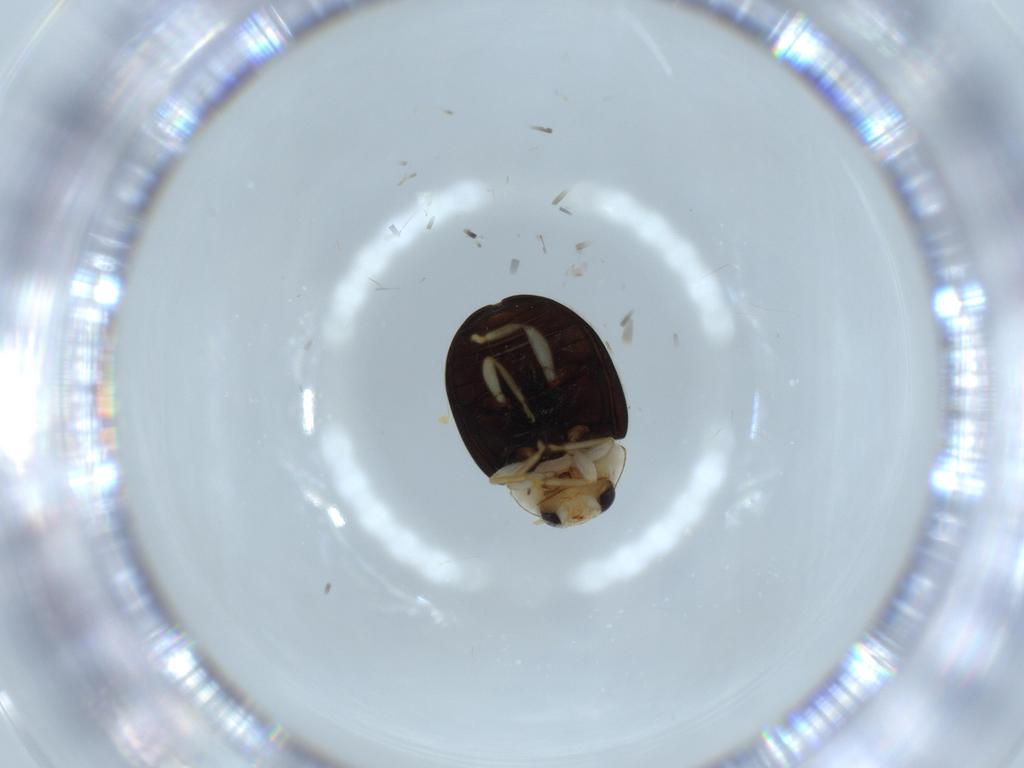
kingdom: Animalia
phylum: Arthropoda
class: Insecta
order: Coleoptera
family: Coccinellidae
